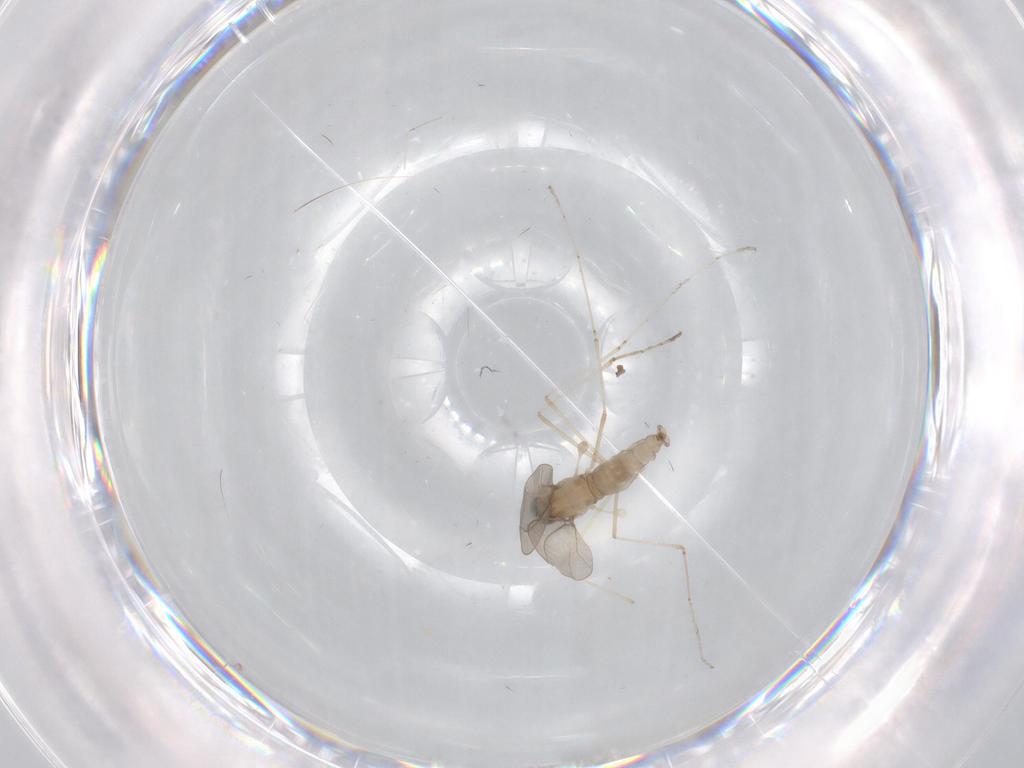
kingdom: Animalia
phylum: Arthropoda
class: Insecta
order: Diptera
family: Cecidomyiidae
